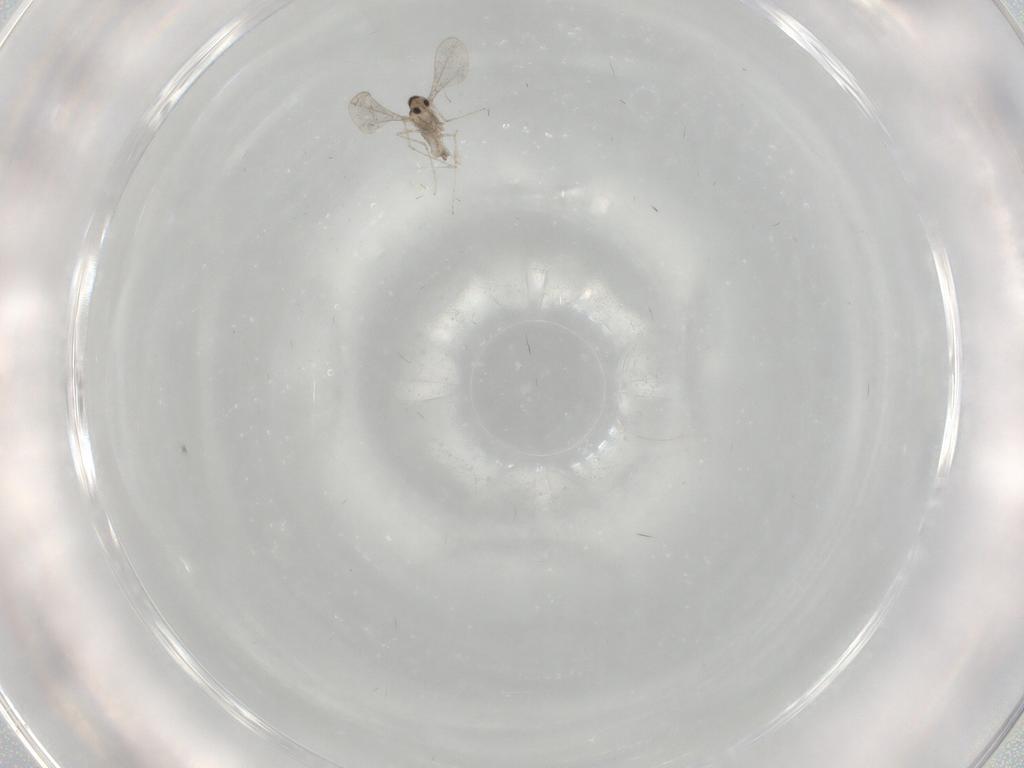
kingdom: Animalia
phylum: Arthropoda
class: Insecta
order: Diptera
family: Cecidomyiidae
